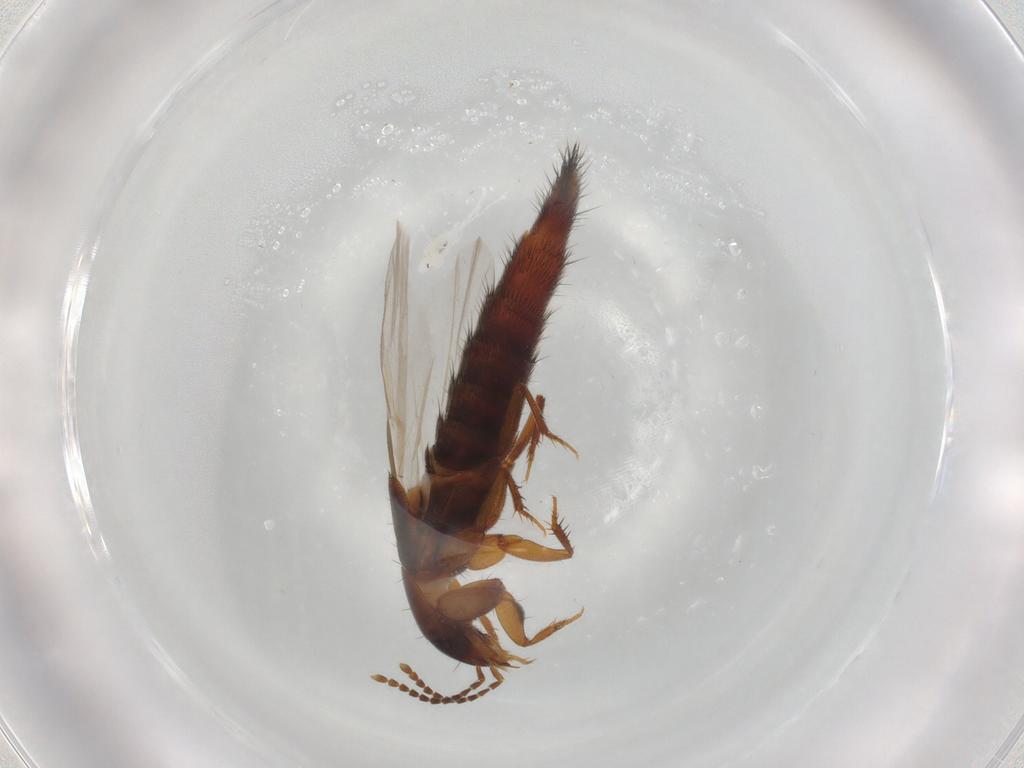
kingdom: Animalia
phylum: Arthropoda
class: Insecta
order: Coleoptera
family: Staphylinidae
